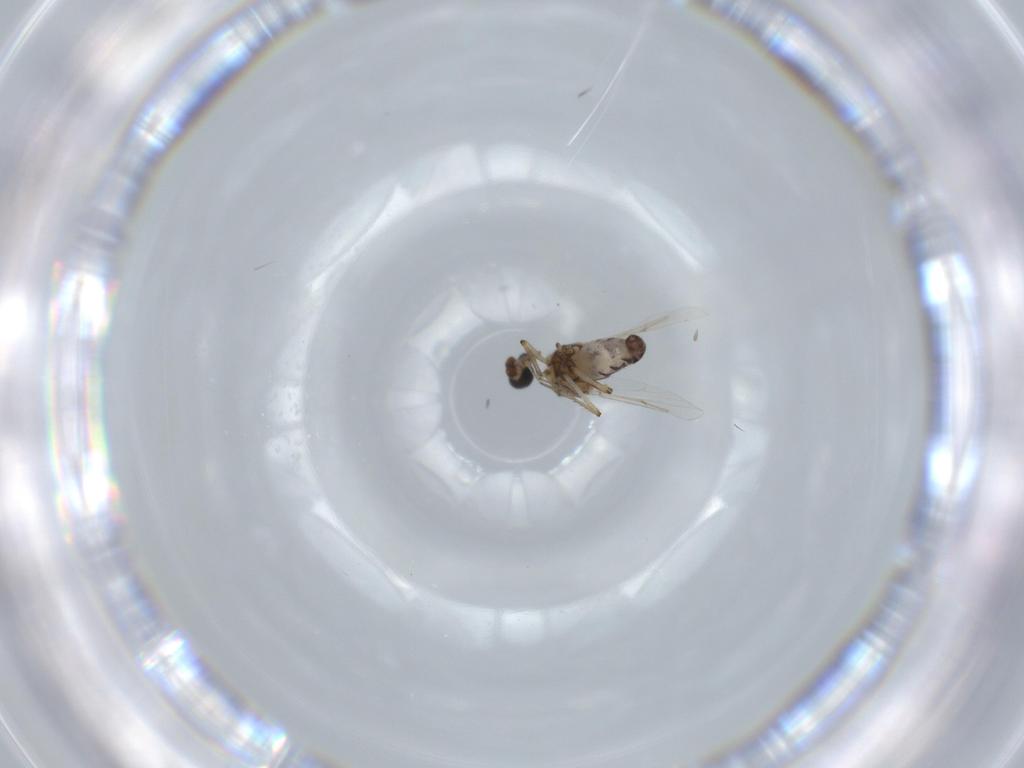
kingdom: Animalia
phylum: Arthropoda
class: Insecta
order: Diptera
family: Ceratopogonidae
